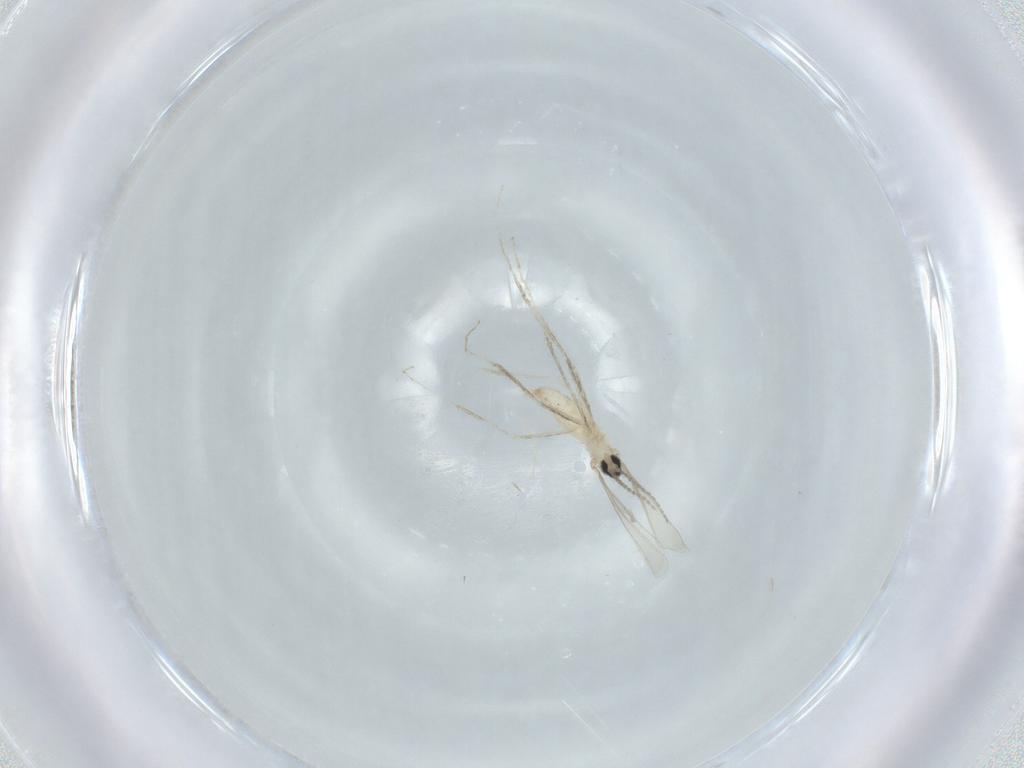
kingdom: Animalia
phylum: Arthropoda
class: Insecta
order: Diptera
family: Cecidomyiidae
